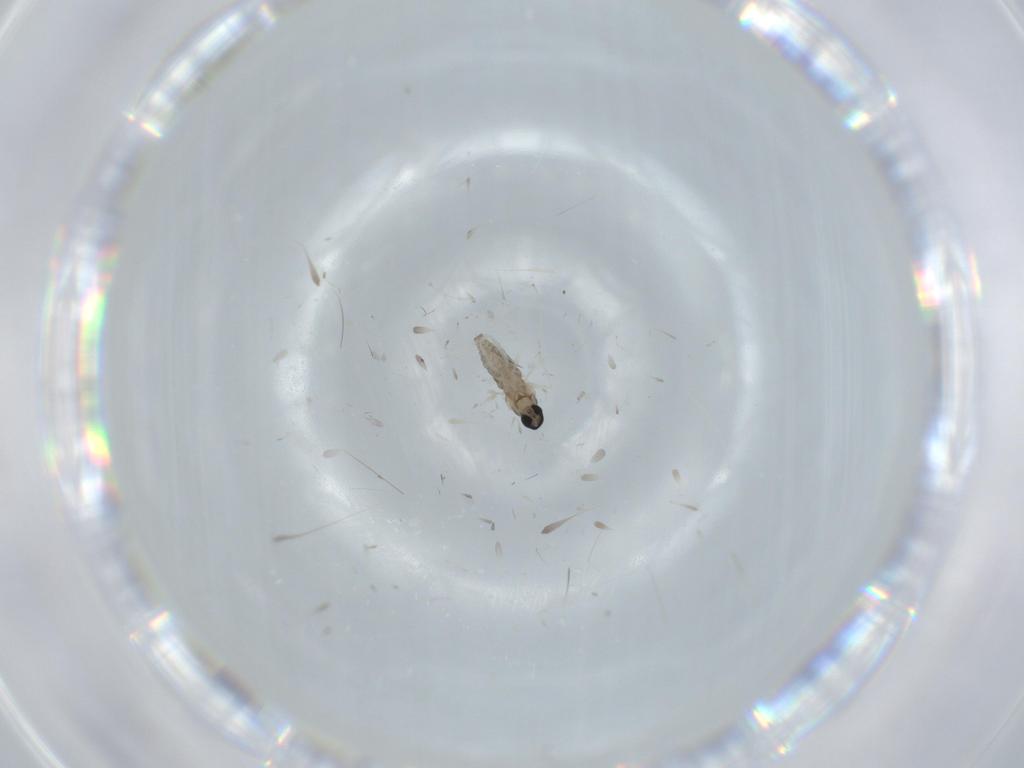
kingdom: Animalia
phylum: Arthropoda
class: Insecta
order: Diptera
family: Cecidomyiidae
